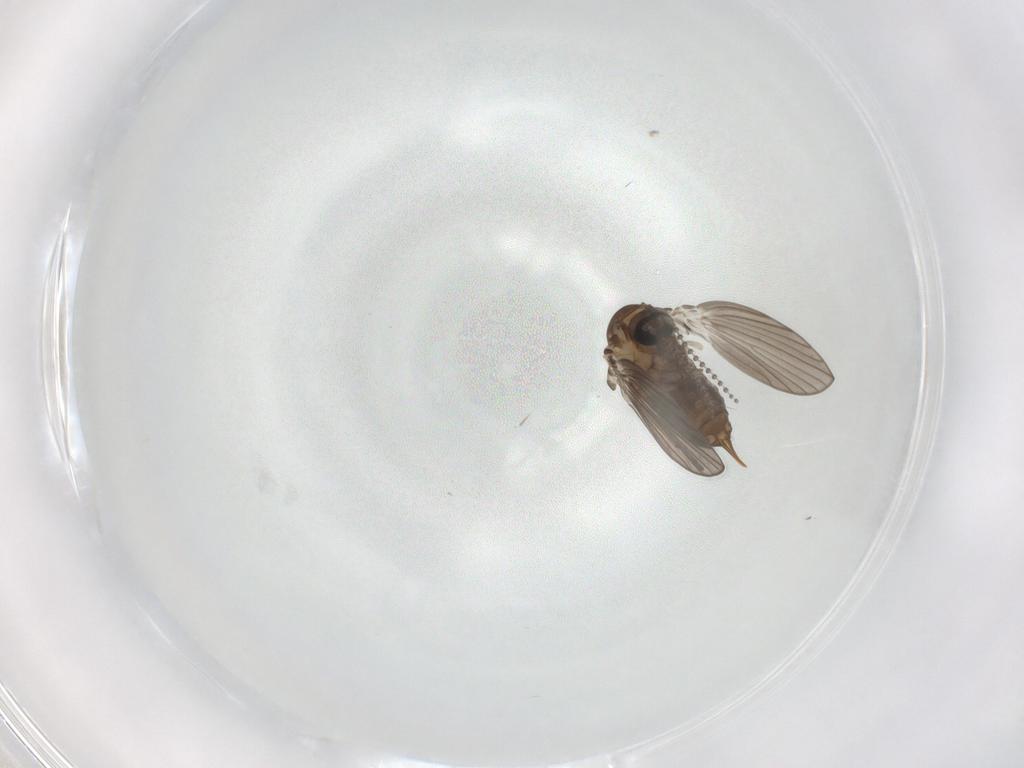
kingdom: Animalia
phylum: Arthropoda
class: Insecta
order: Diptera
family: Psychodidae
